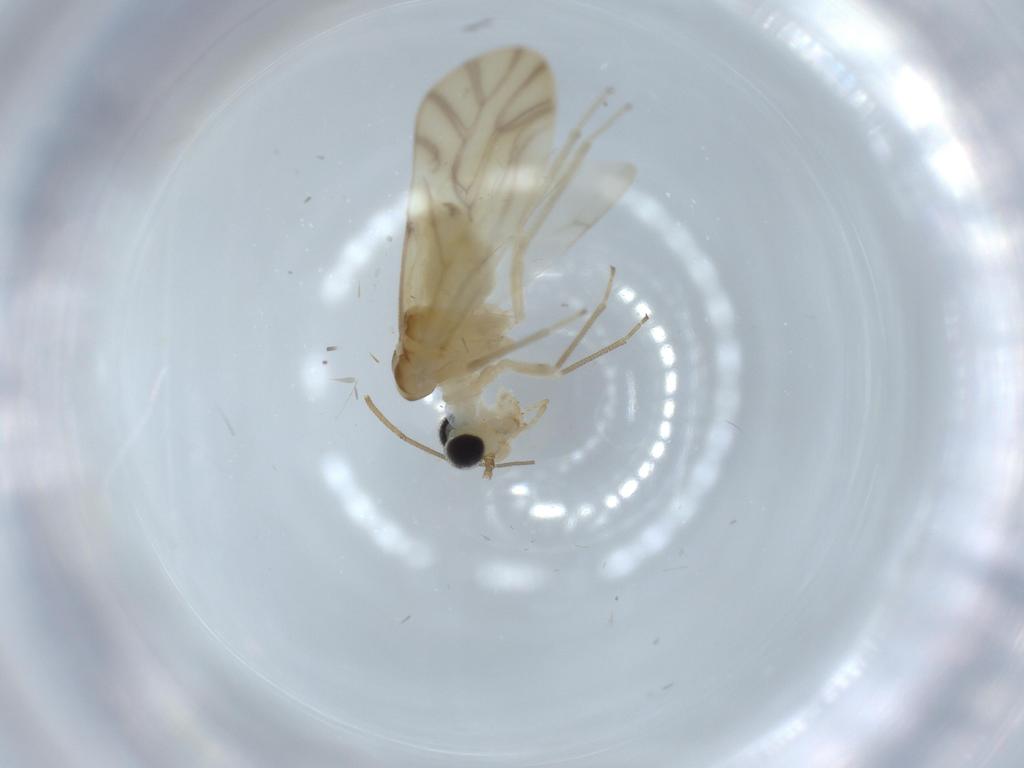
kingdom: Animalia
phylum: Arthropoda
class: Insecta
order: Psocodea
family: Caeciliusidae
